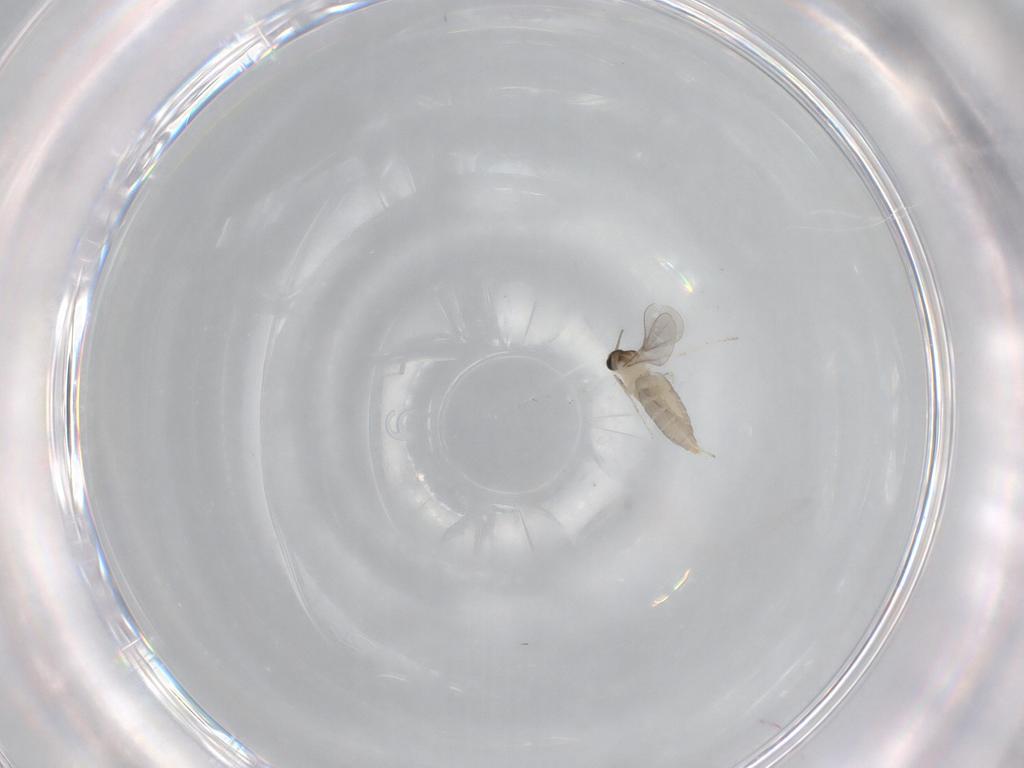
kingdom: Animalia
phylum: Arthropoda
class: Insecta
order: Diptera
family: Cecidomyiidae
